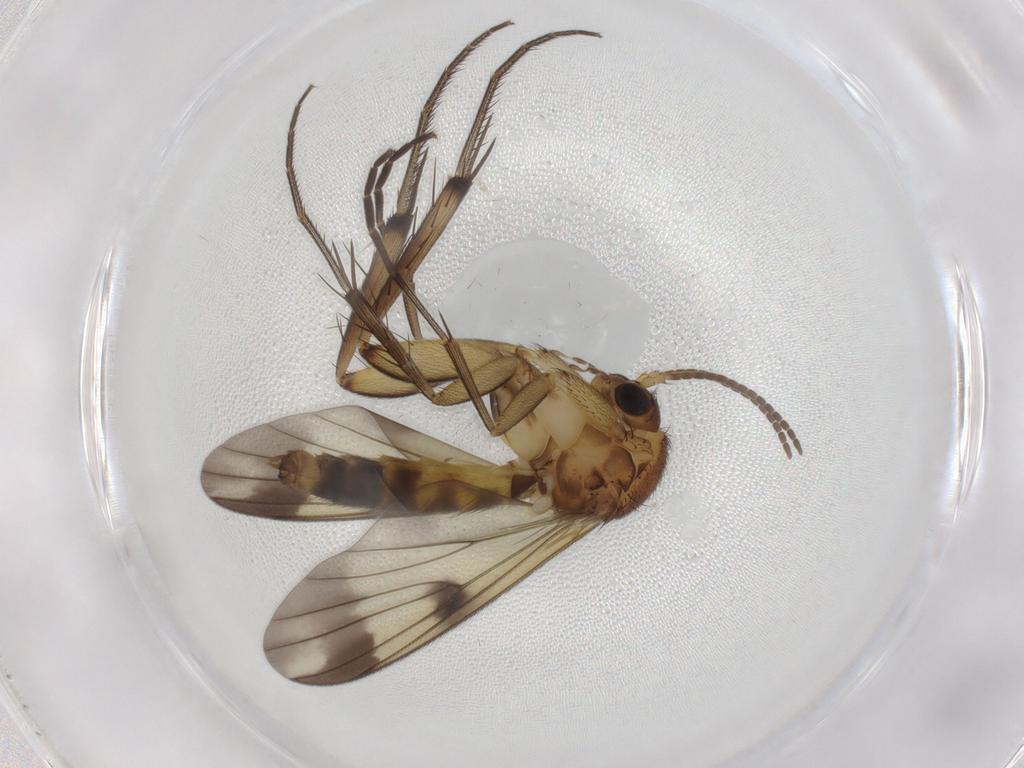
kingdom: Animalia
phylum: Arthropoda
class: Insecta
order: Diptera
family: Mycetophilidae
